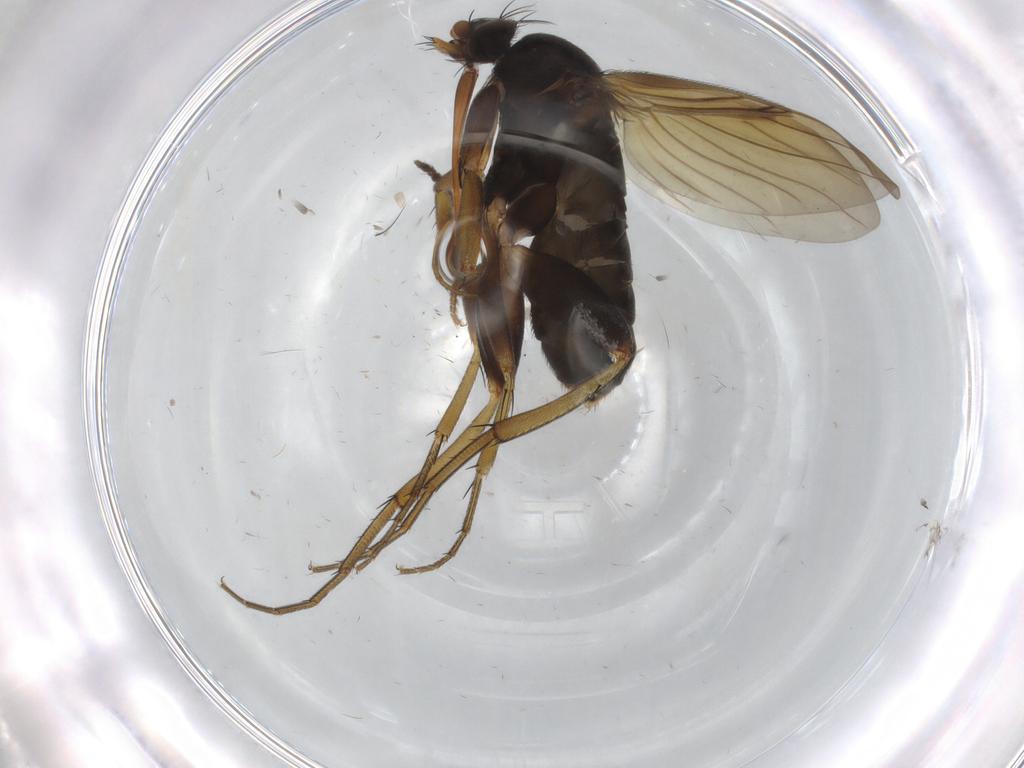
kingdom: Animalia
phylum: Arthropoda
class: Insecta
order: Diptera
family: Phoridae
